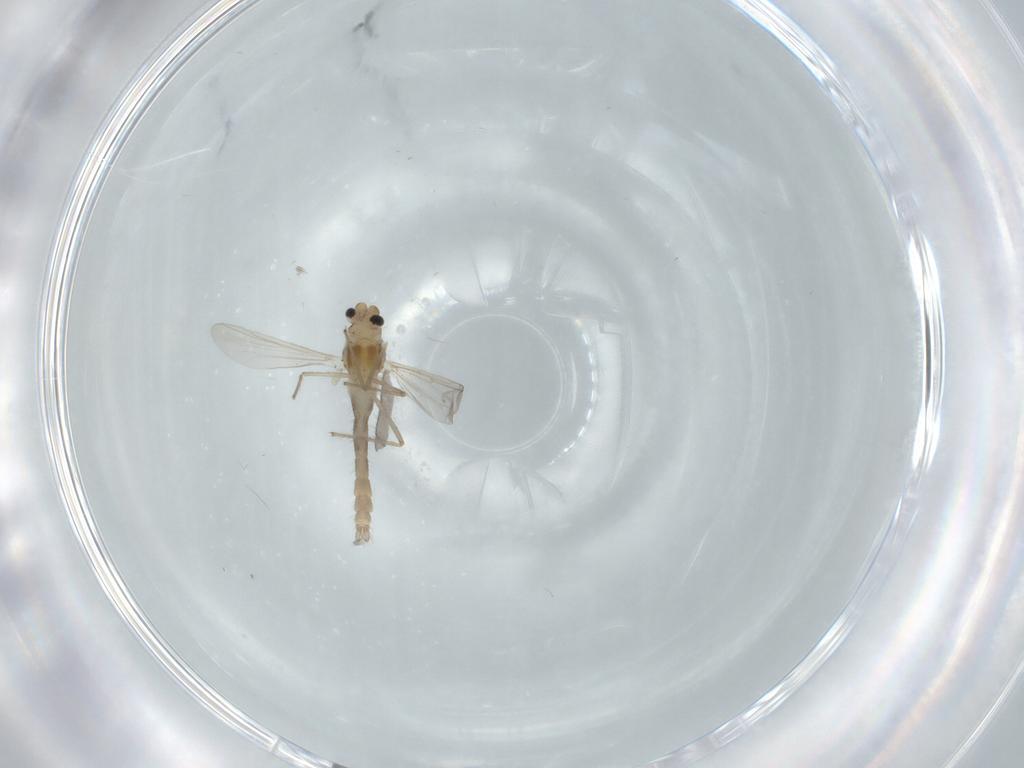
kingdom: Animalia
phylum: Arthropoda
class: Insecta
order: Diptera
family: Chironomidae
